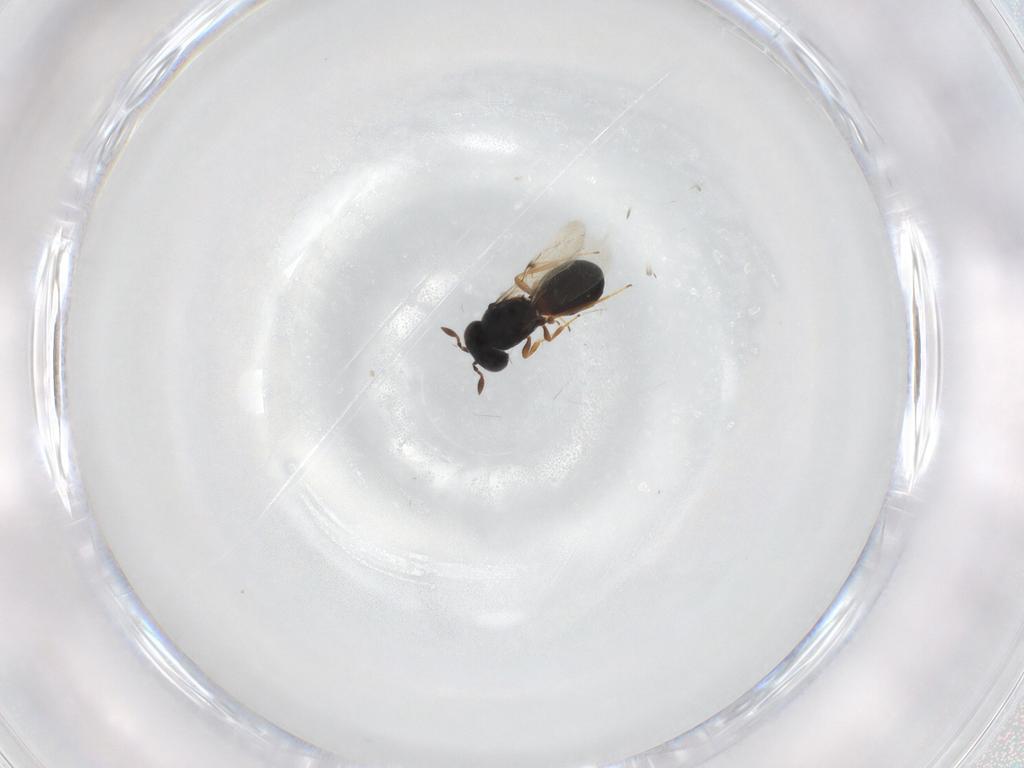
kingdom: Animalia
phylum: Arthropoda
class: Insecta
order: Hymenoptera
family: Scelionidae
